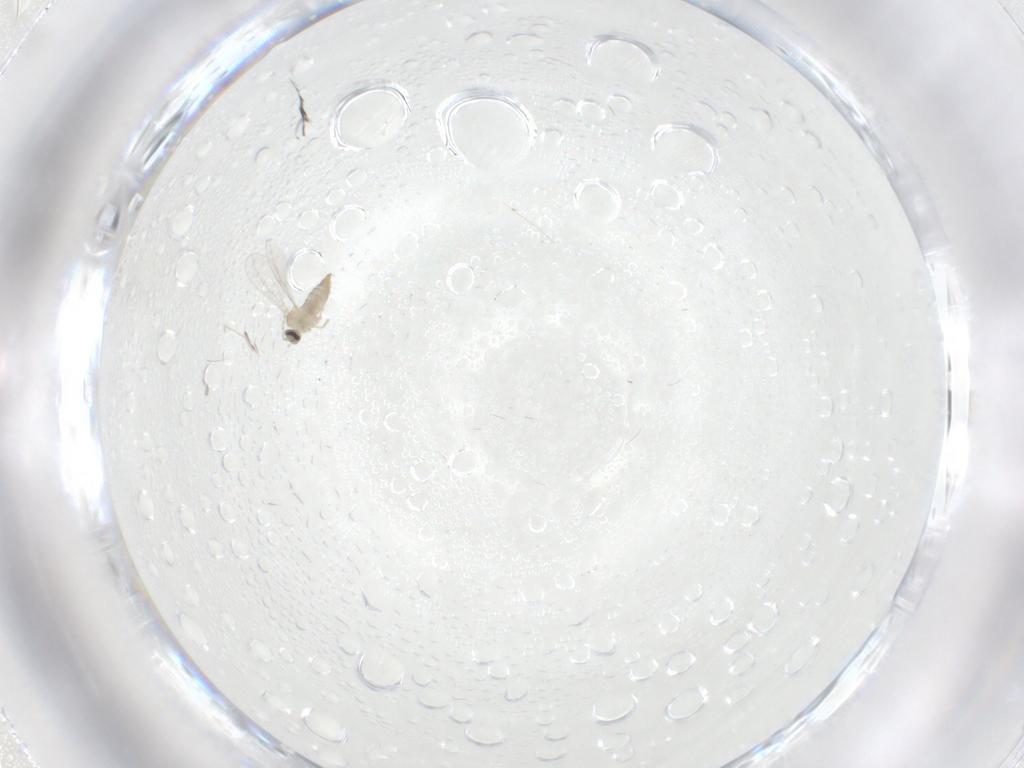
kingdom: Animalia
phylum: Arthropoda
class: Insecta
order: Diptera
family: Cecidomyiidae
